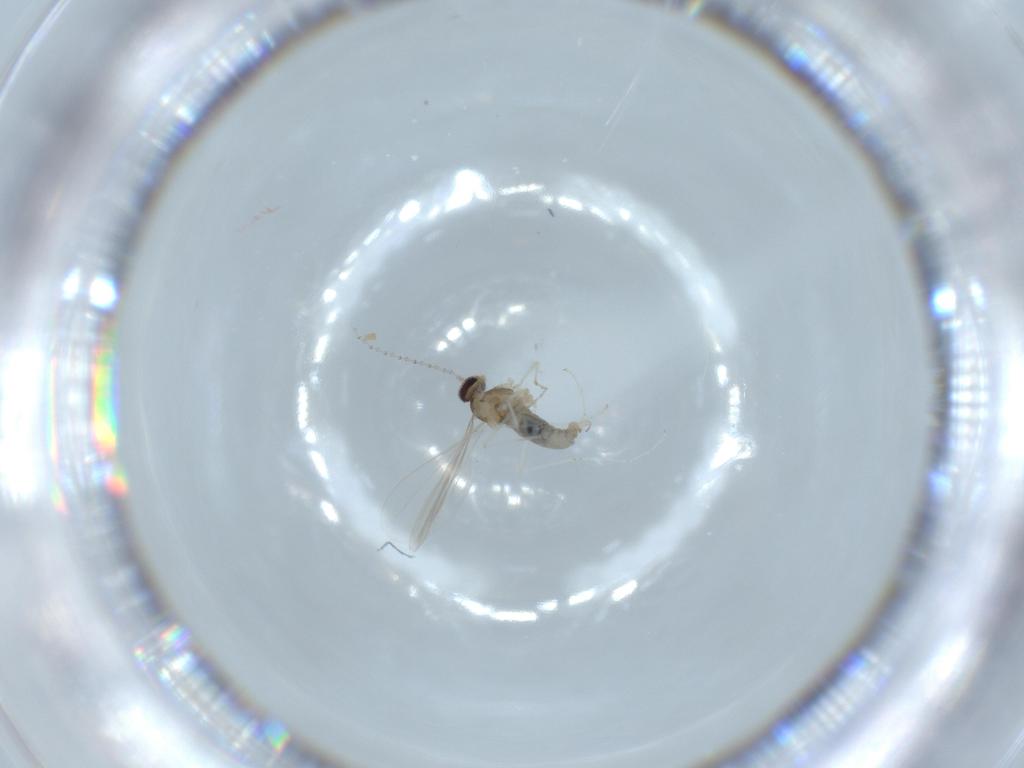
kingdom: Animalia
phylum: Arthropoda
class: Insecta
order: Diptera
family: Cecidomyiidae
